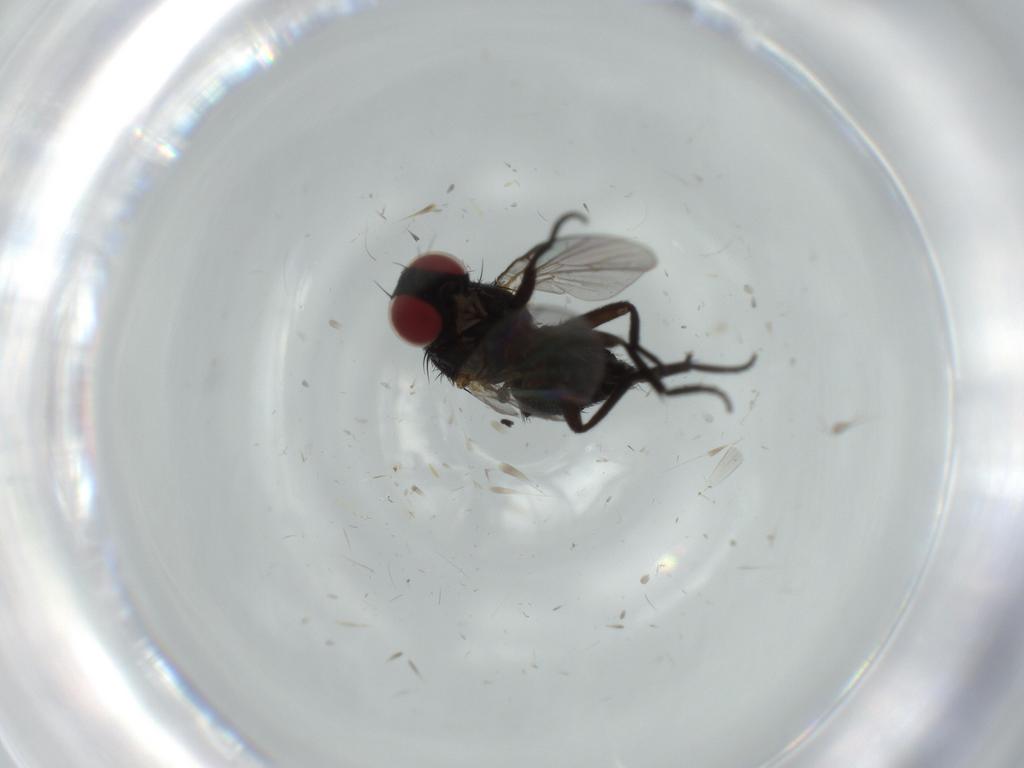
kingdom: Animalia
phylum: Arthropoda
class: Insecta
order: Diptera
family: Agromyzidae
